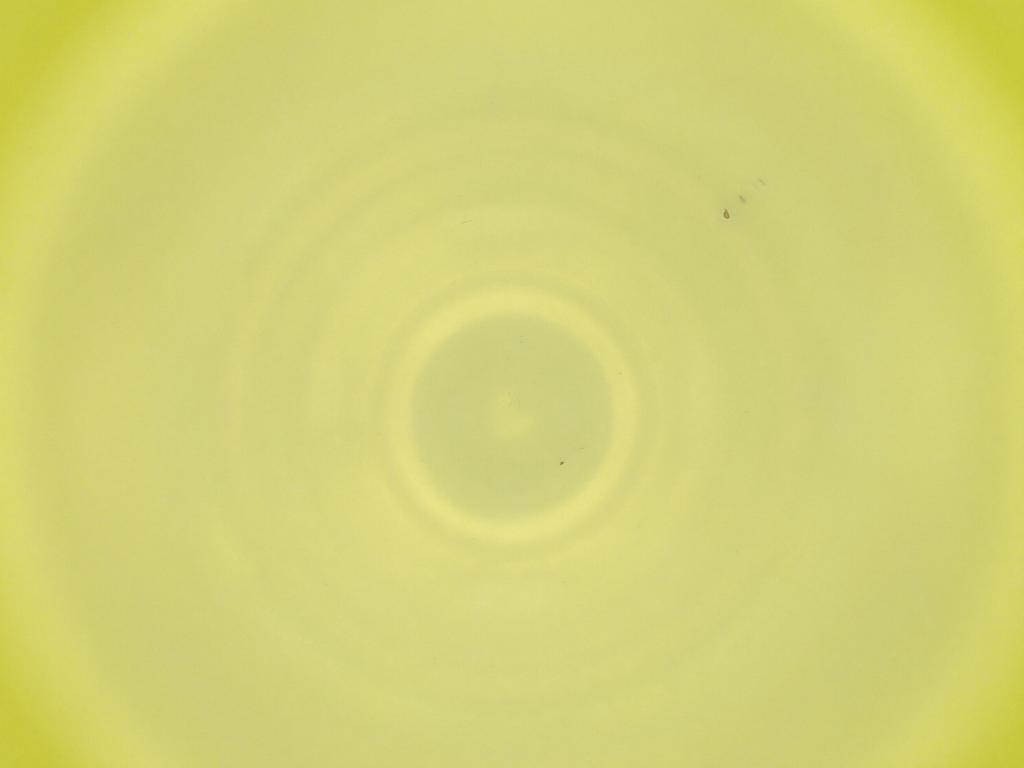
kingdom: Animalia
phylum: Arthropoda
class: Insecta
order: Diptera
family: Cecidomyiidae
